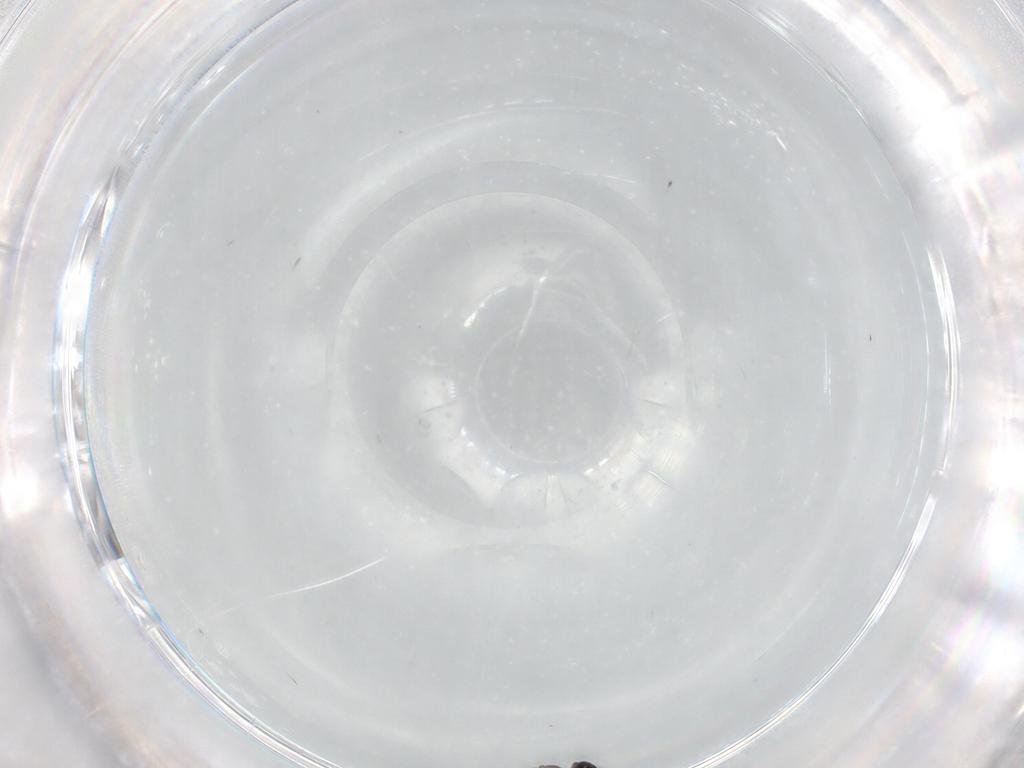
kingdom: Animalia
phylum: Arthropoda
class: Insecta
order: Diptera
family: Cecidomyiidae
